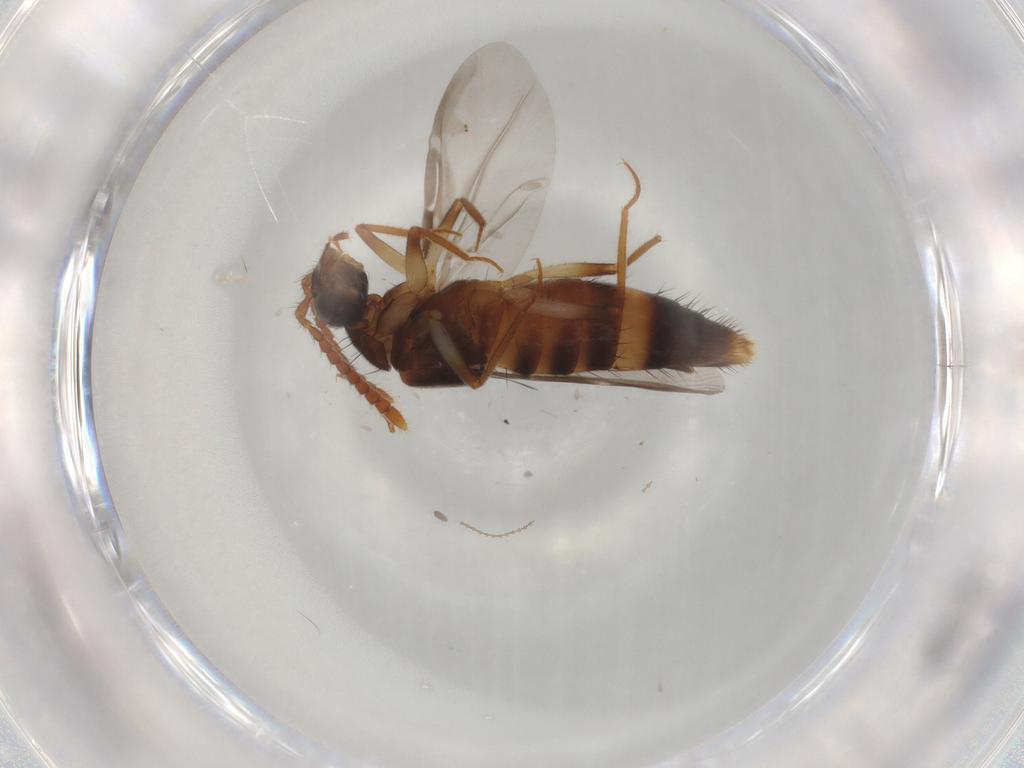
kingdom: Animalia
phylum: Arthropoda
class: Insecta
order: Coleoptera
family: Staphylinidae
